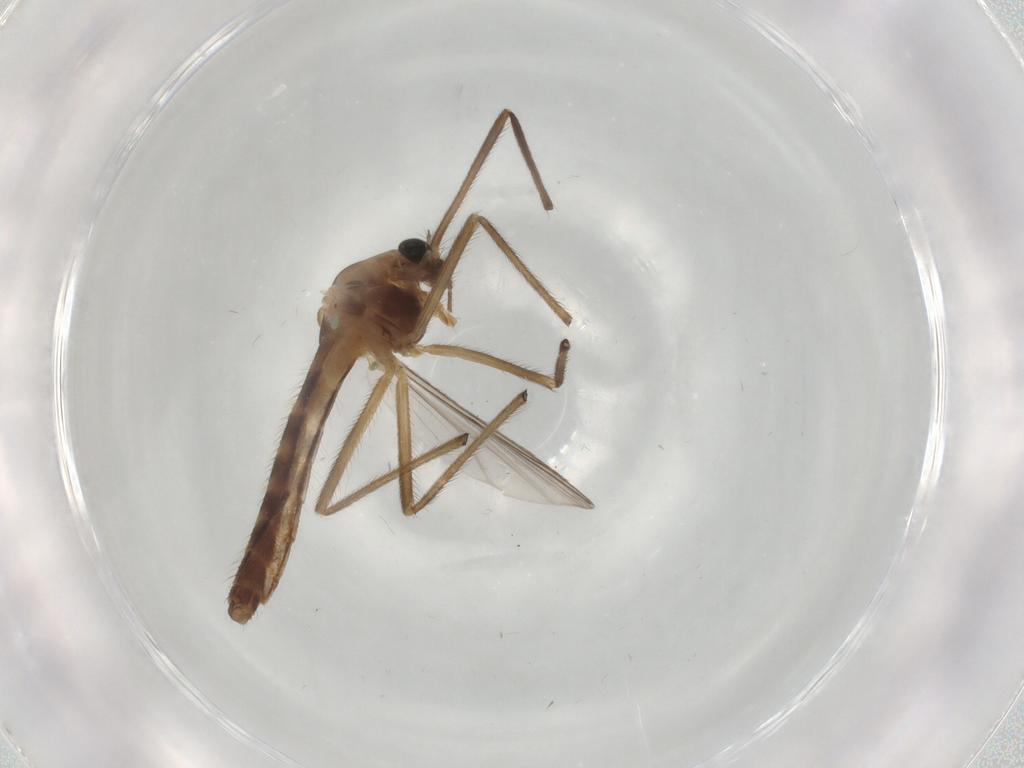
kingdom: Animalia
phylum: Arthropoda
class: Insecta
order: Diptera
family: Chironomidae
